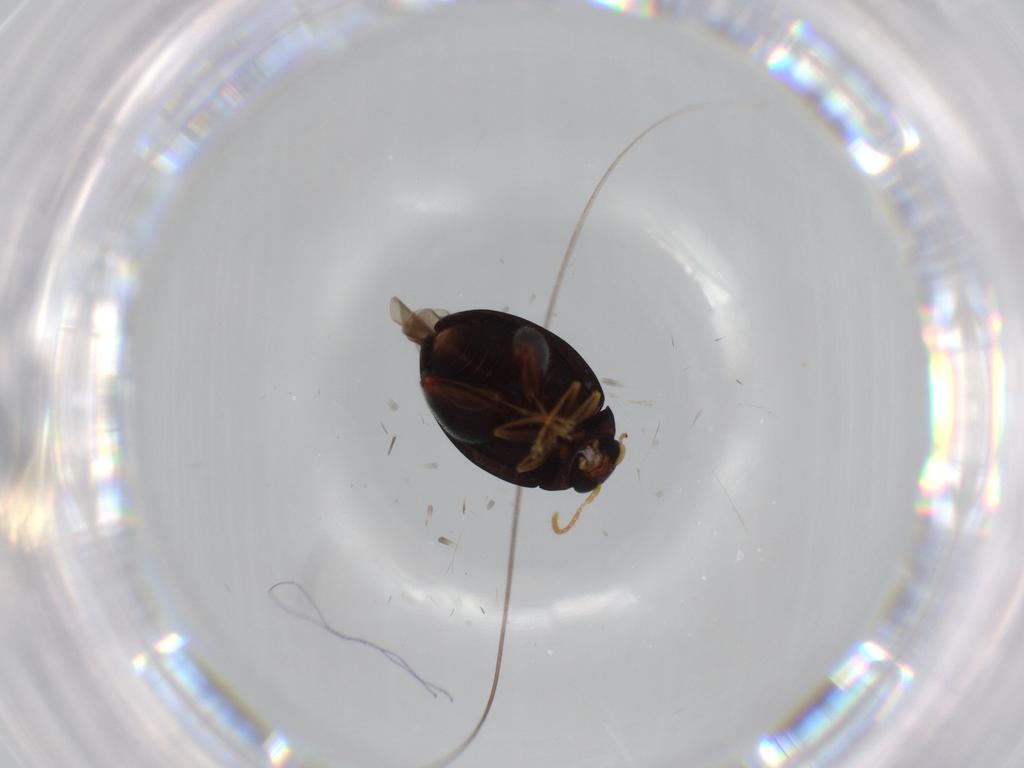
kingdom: Animalia
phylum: Arthropoda
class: Insecta
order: Coleoptera
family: Chrysomelidae
